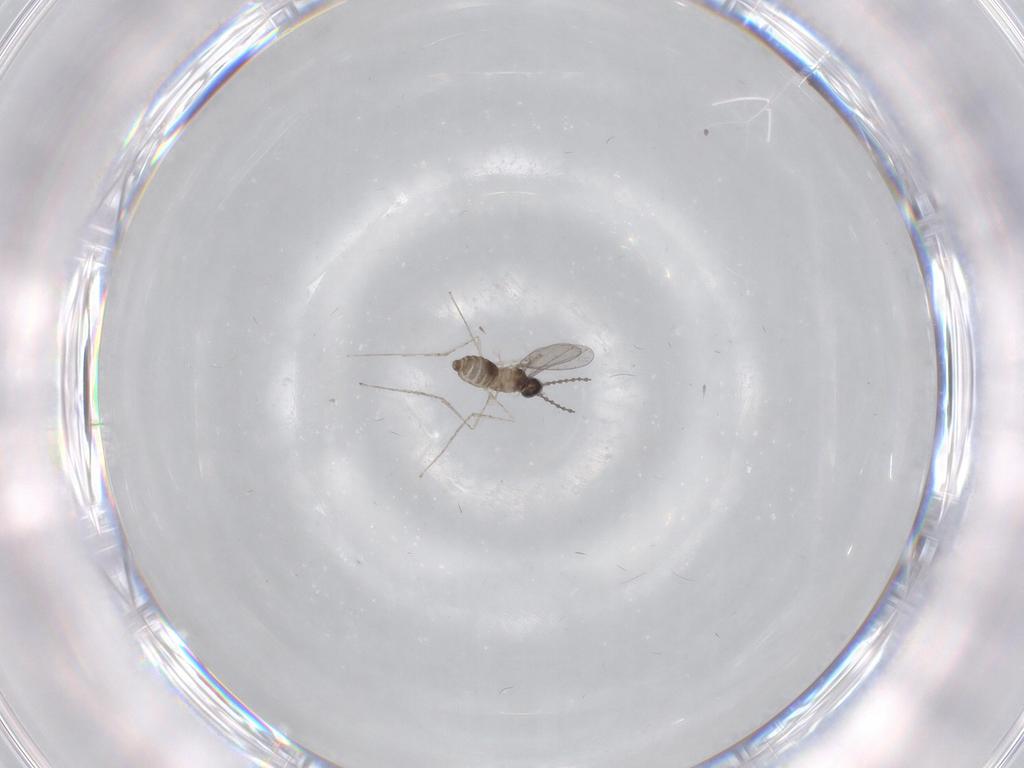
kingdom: Animalia
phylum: Arthropoda
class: Insecta
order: Diptera
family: Cecidomyiidae
